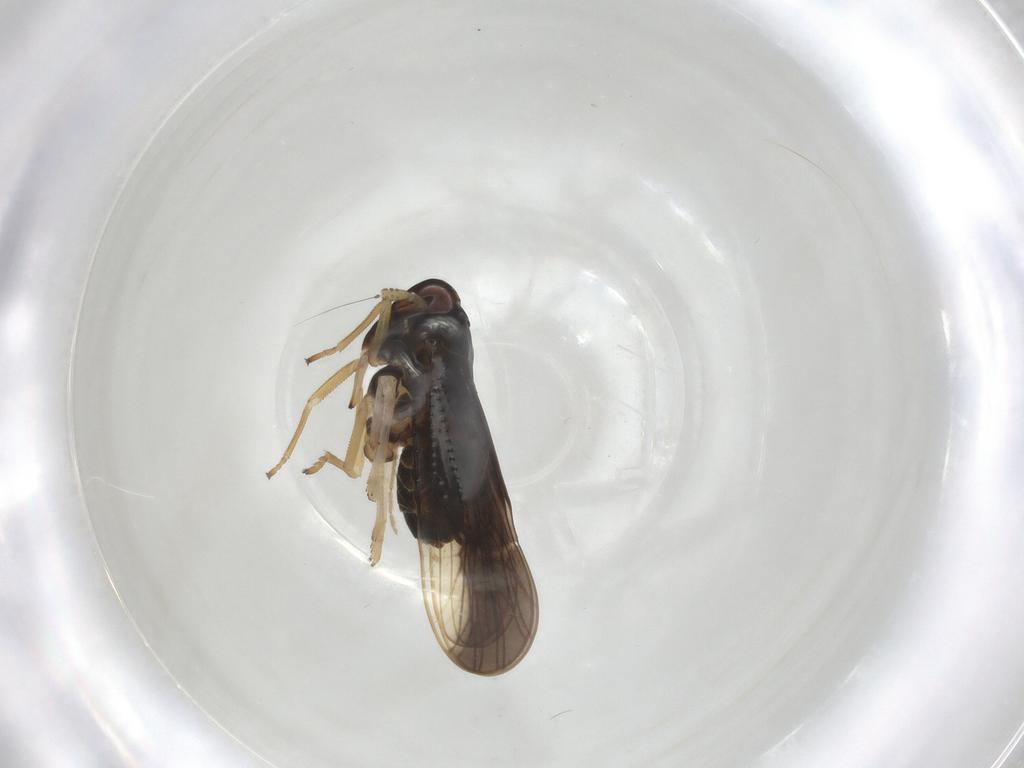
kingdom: Animalia
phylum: Arthropoda
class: Insecta
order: Diptera
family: Chironomidae
